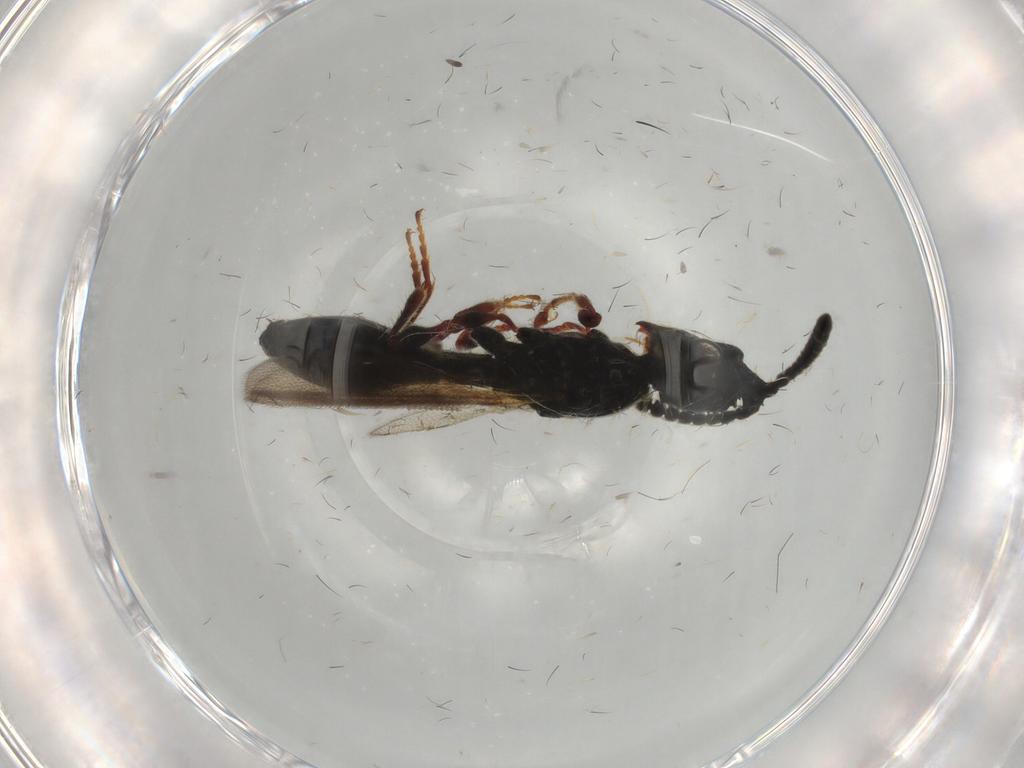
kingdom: Animalia
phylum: Arthropoda
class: Insecta
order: Hymenoptera
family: Diapriidae
